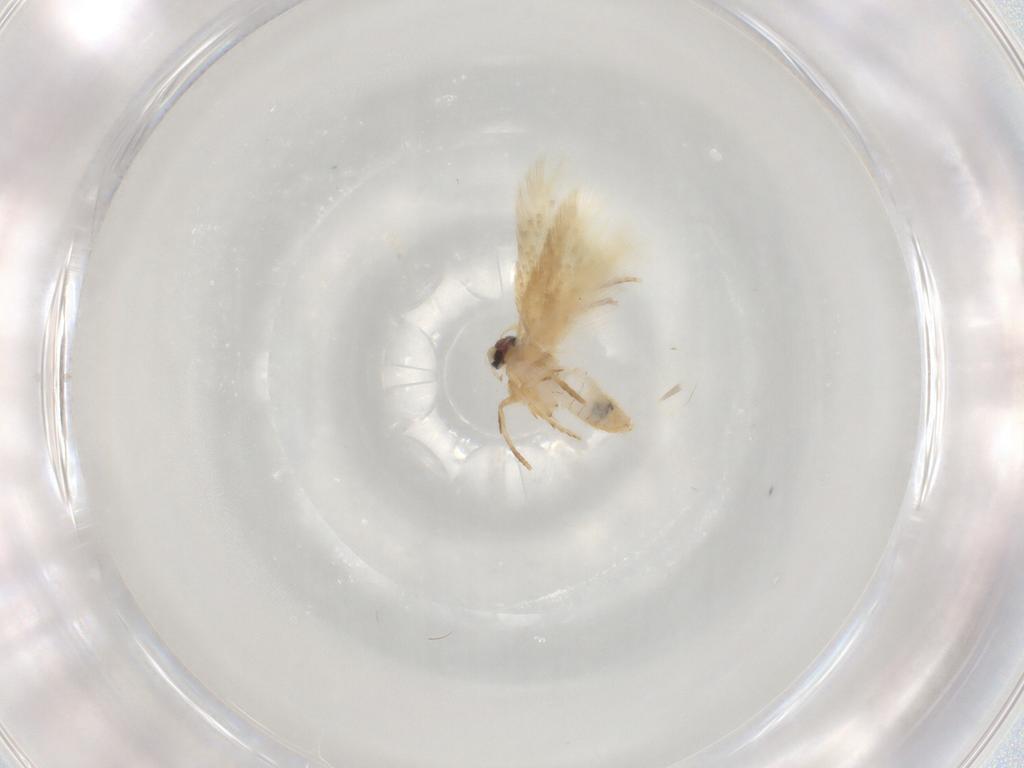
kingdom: Animalia
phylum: Arthropoda
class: Insecta
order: Lepidoptera
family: Nepticulidae
